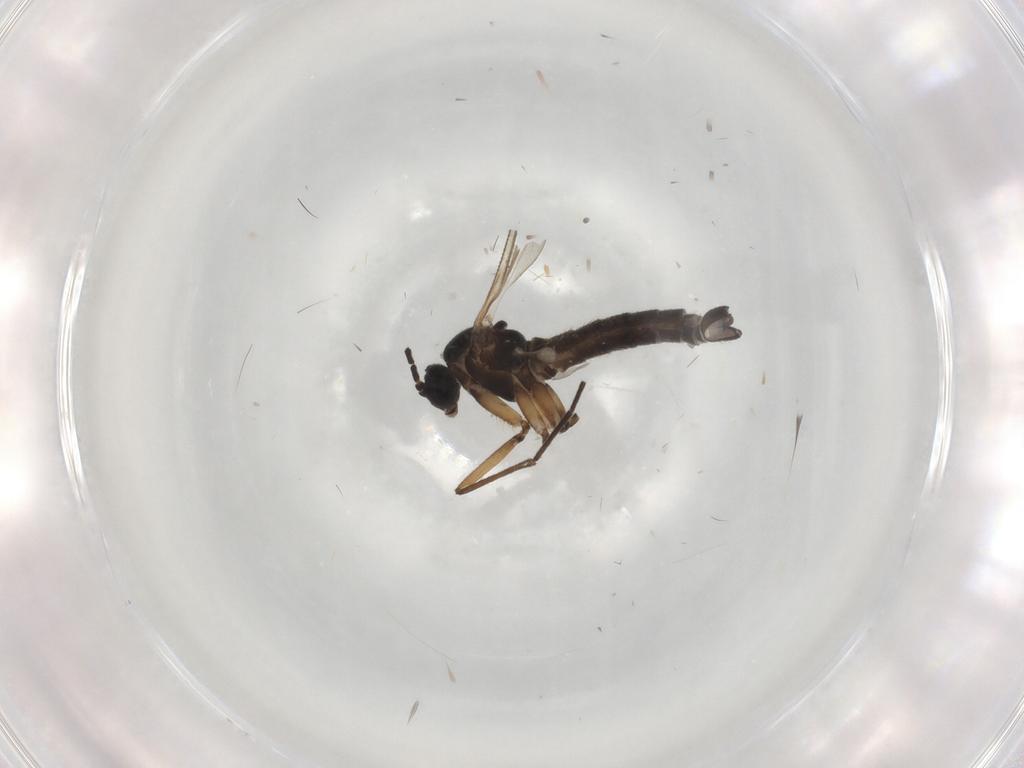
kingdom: Animalia
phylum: Arthropoda
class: Insecta
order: Diptera
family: Sciaridae
